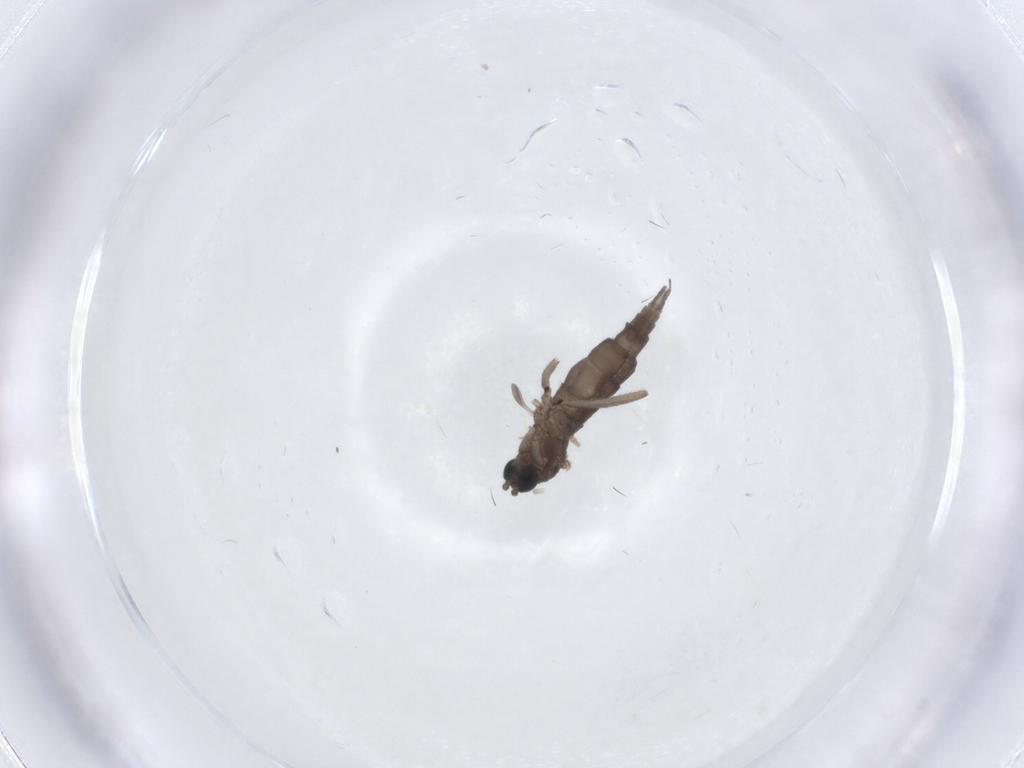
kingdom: Animalia
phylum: Arthropoda
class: Insecta
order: Diptera
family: Sciaridae
